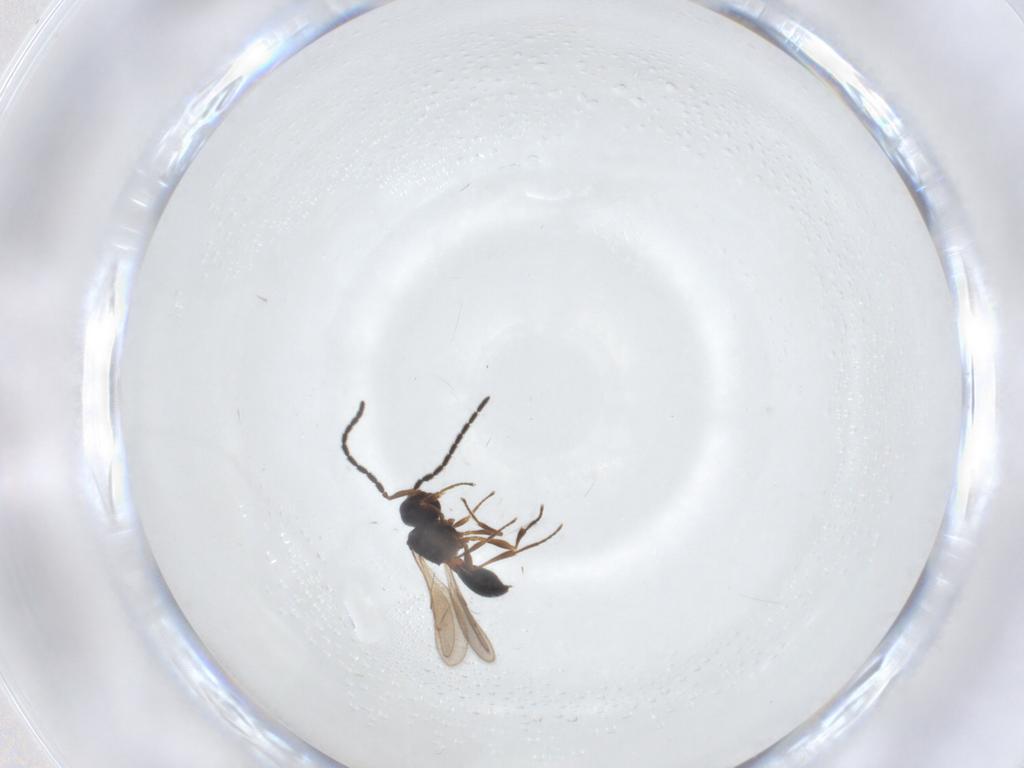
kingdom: Animalia
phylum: Arthropoda
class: Insecta
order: Hymenoptera
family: Scelionidae
